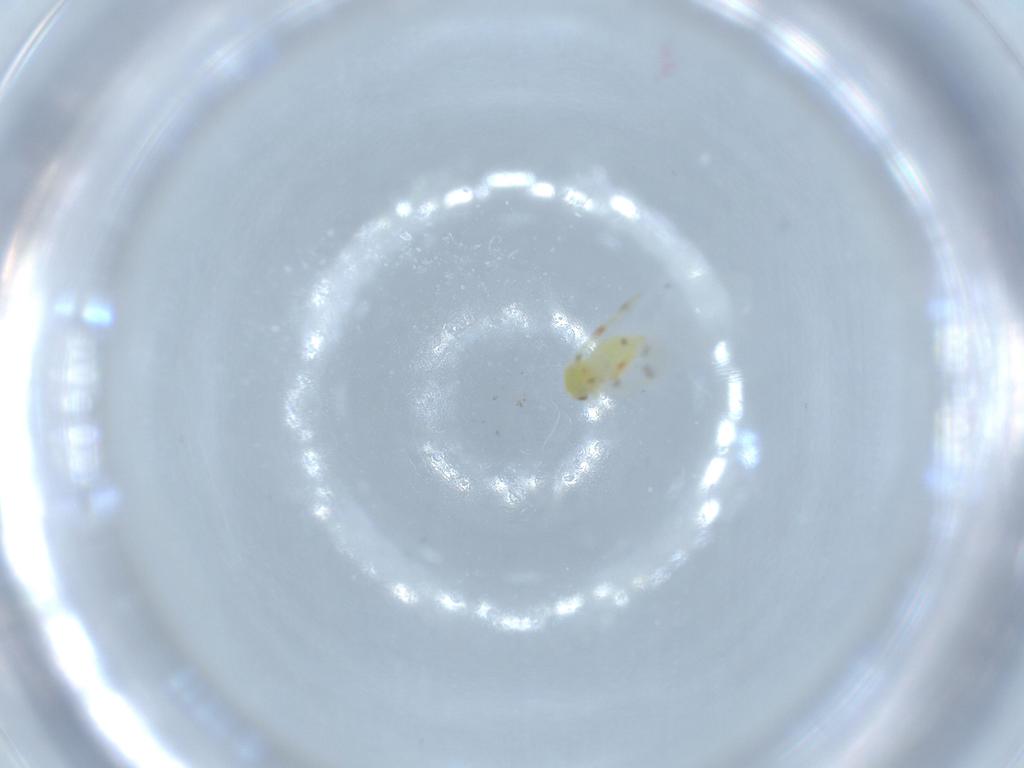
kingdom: Animalia
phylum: Arthropoda
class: Insecta
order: Hemiptera
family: Aleyrodidae
